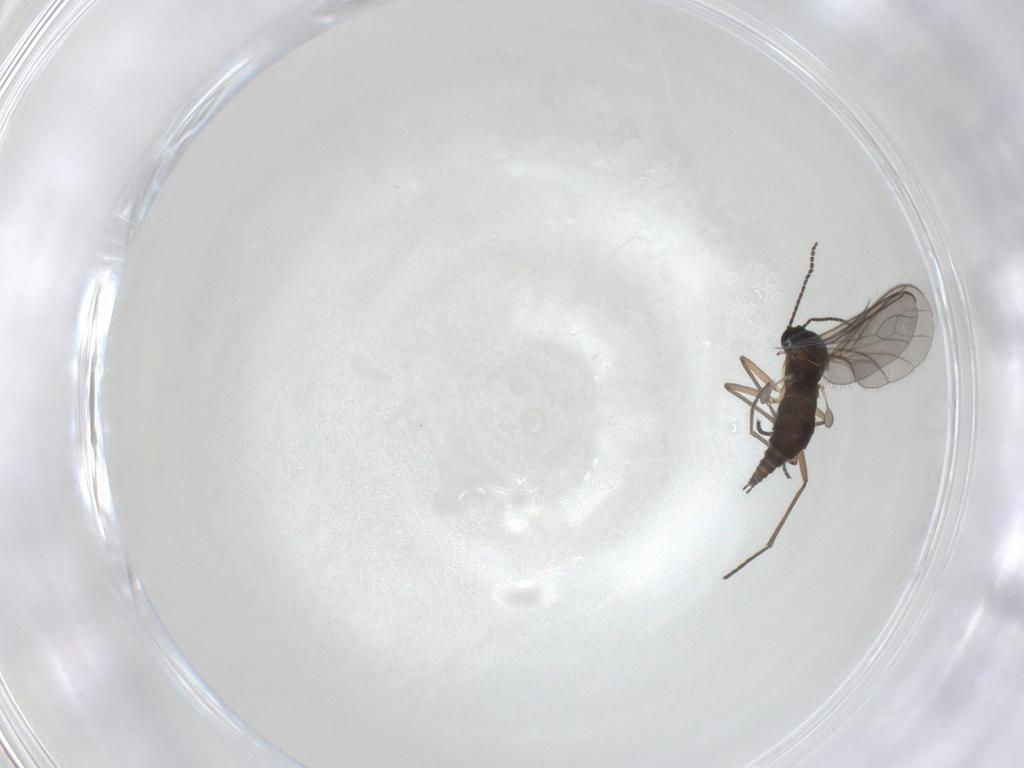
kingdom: Animalia
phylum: Arthropoda
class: Insecta
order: Diptera
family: Sciaridae
